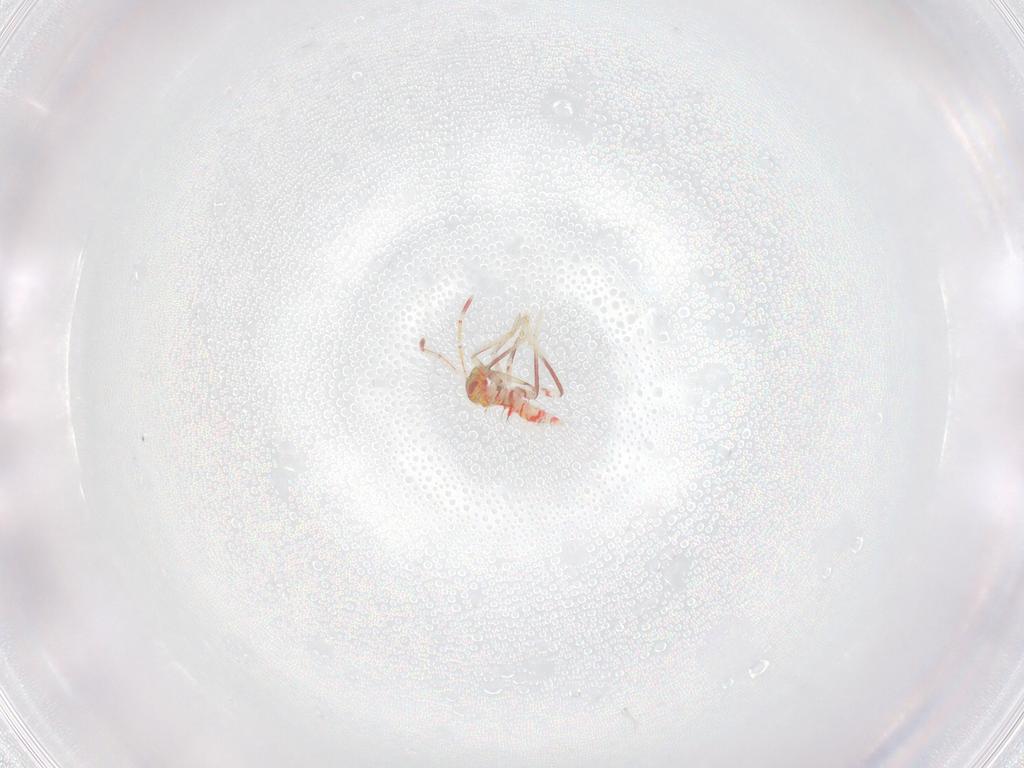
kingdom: Animalia
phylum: Arthropoda
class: Insecta
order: Hemiptera
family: Miridae
